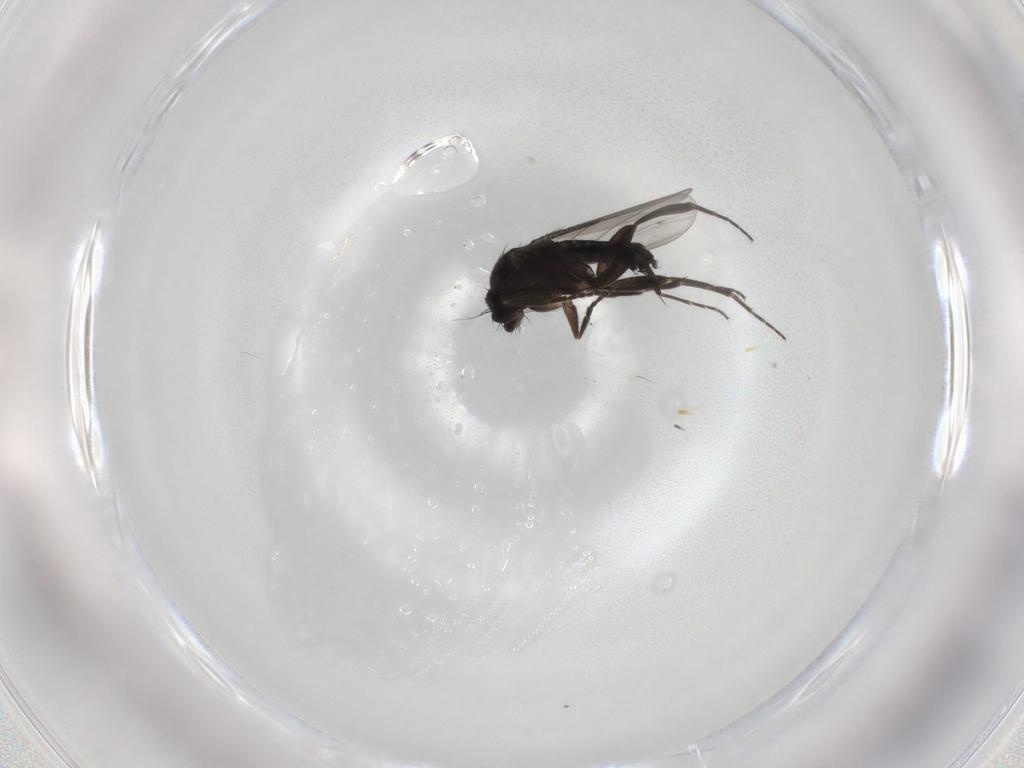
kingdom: Animalia
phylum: Arthropoda
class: Insecta
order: Diptera
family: Phoridae
